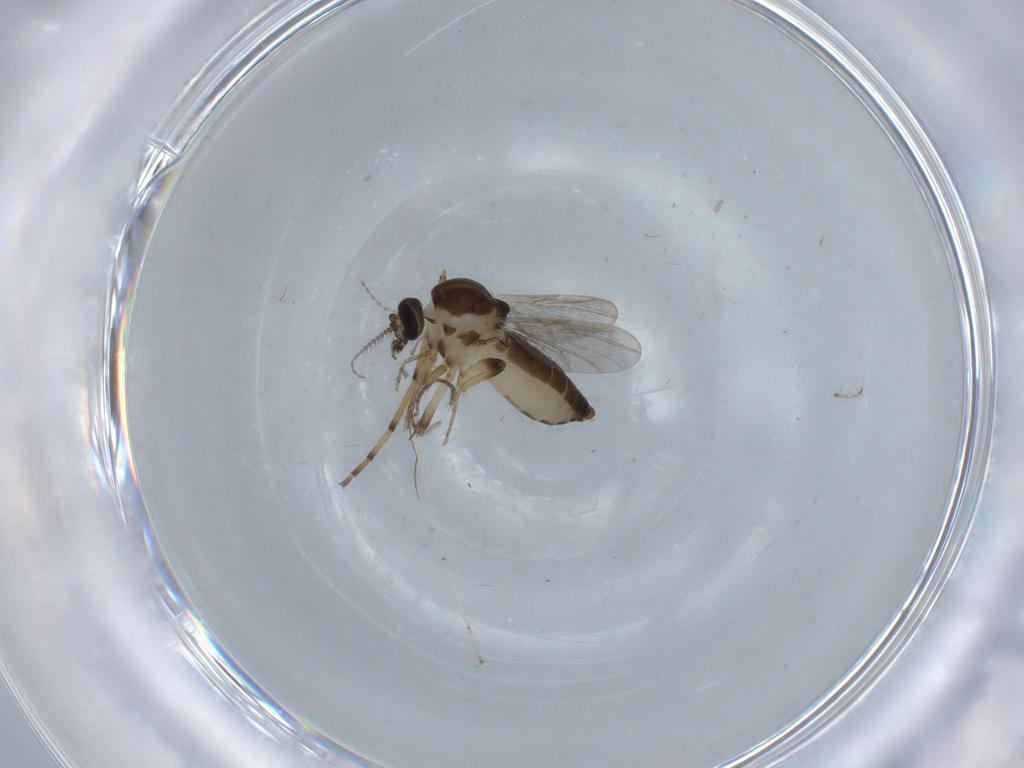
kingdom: Animalia
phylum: Arthropoda
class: Insecta
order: Diptera
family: Ceratopogonidae
